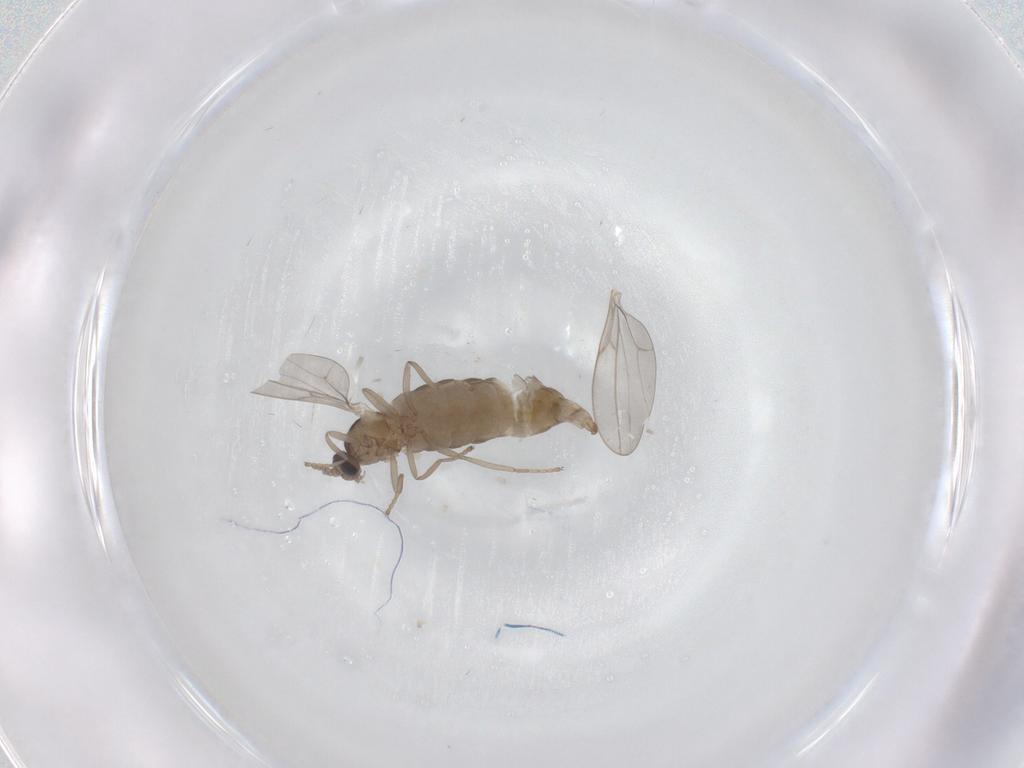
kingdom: Animalia
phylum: Arthropoda
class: Insecta
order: Diptera
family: Cecidomyiidae
